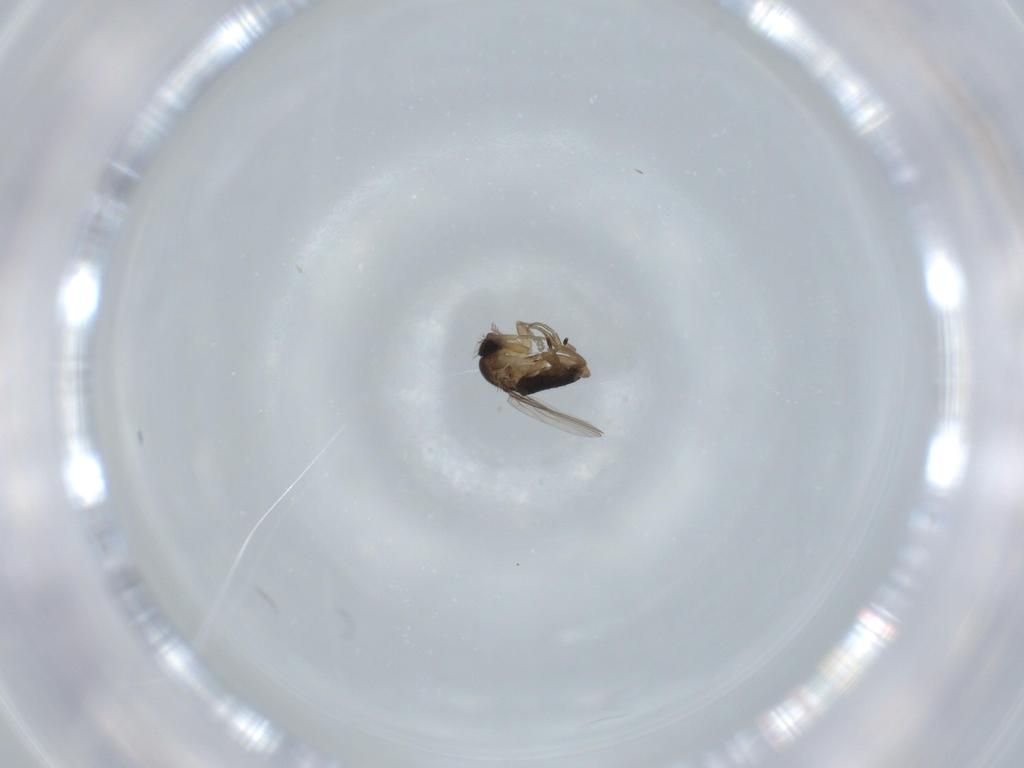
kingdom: Animalia
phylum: Arthropoda
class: Insecta
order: Diptera
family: Phoridae
